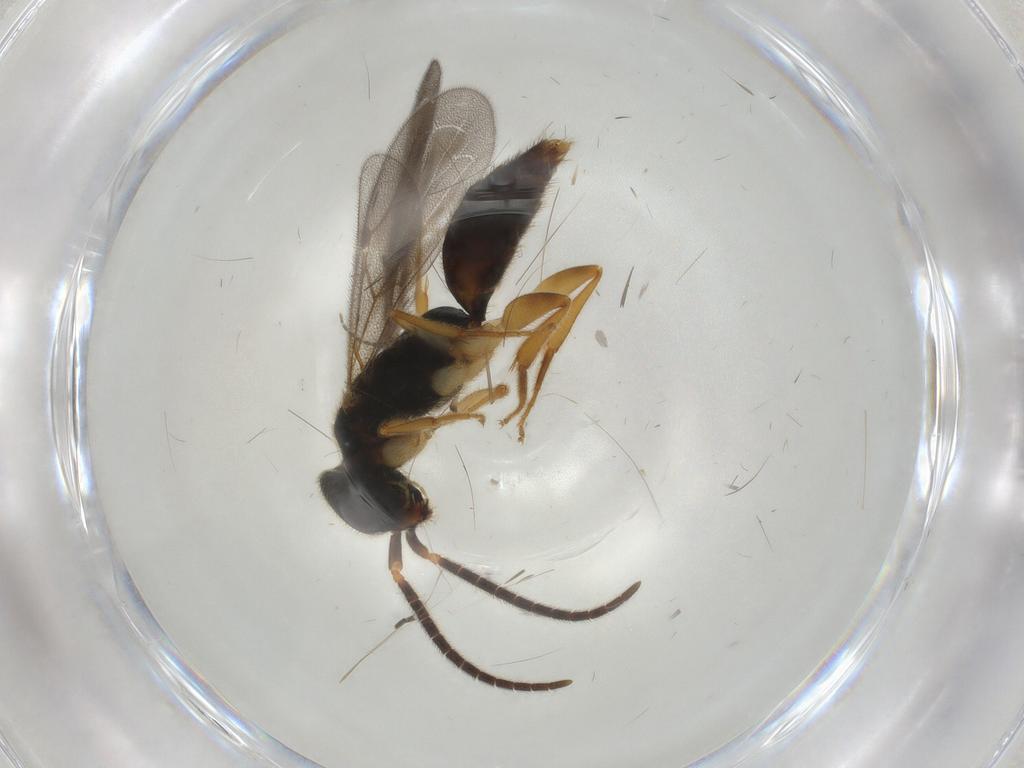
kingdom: Animalia
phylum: Arthropoda
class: Insecta
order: Hymenoptera
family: Bethylidae
